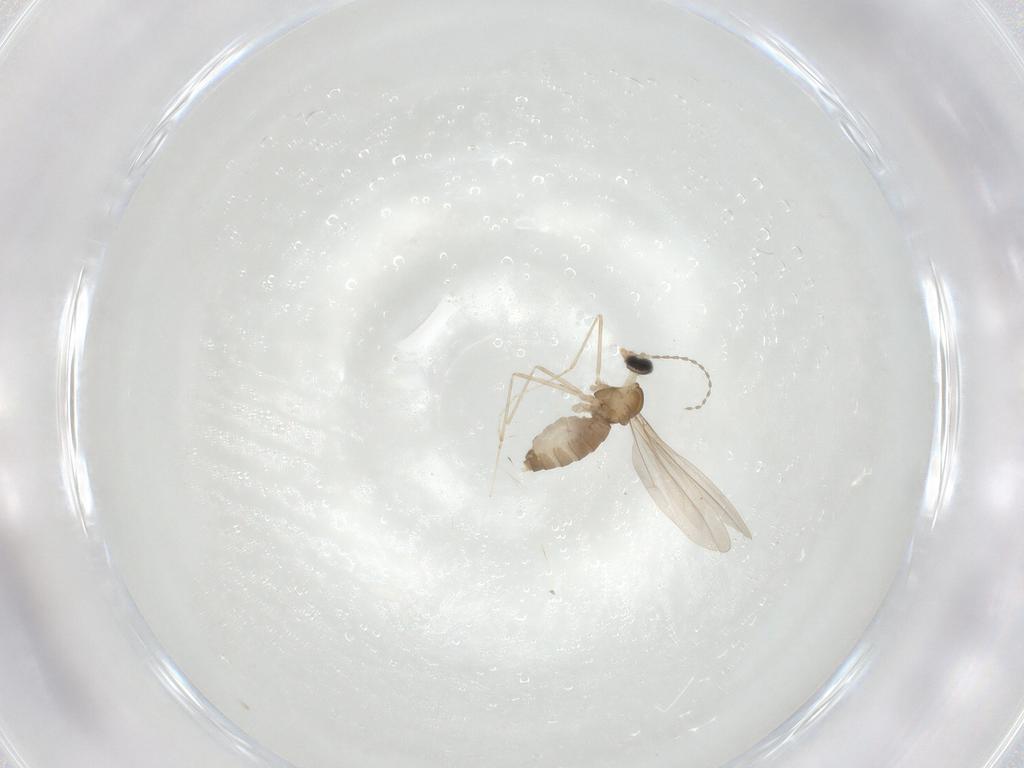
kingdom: Animalia
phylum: Arthropoda
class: Insecta
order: Diptera
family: Cecidomyiidae
